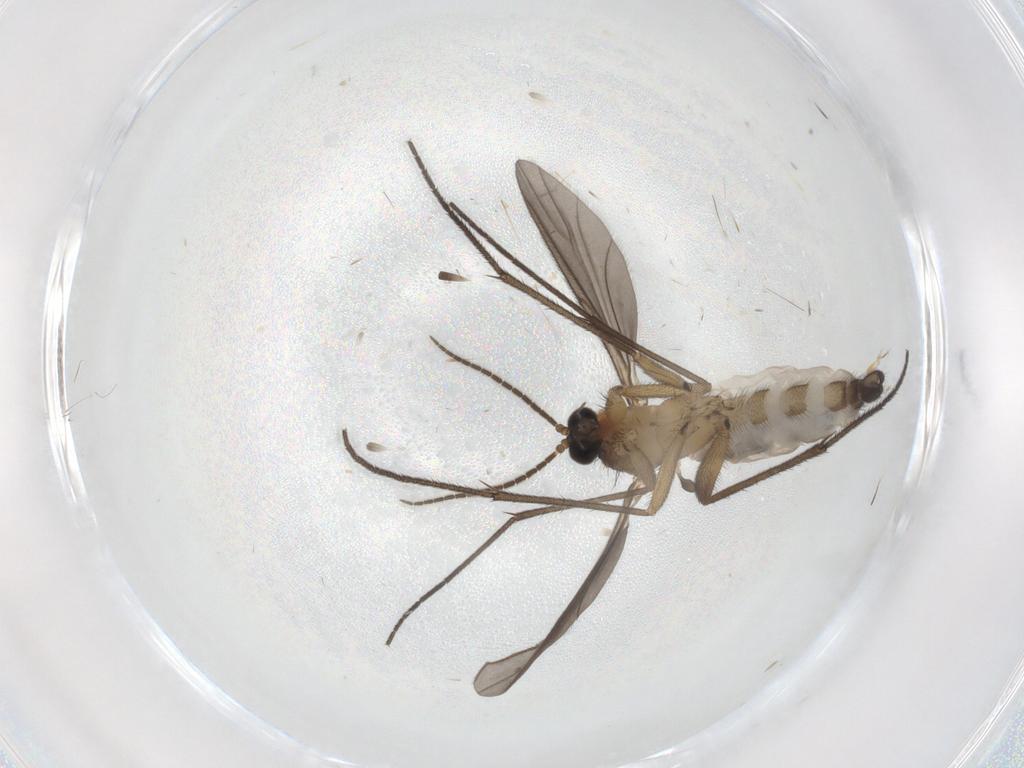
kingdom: Animalia
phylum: Arthropoda
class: Insecta
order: Diptera
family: Sciaridae
